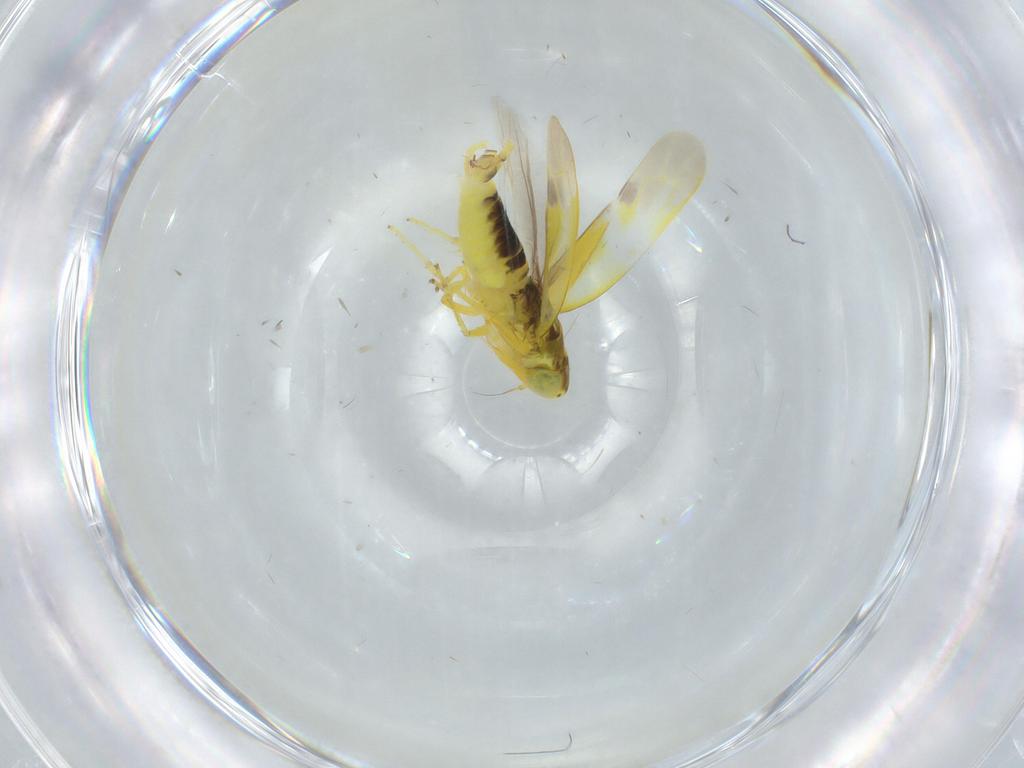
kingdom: Animalia
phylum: Arthropoda
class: Insecta
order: Hemiptera
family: Cicadellidae
